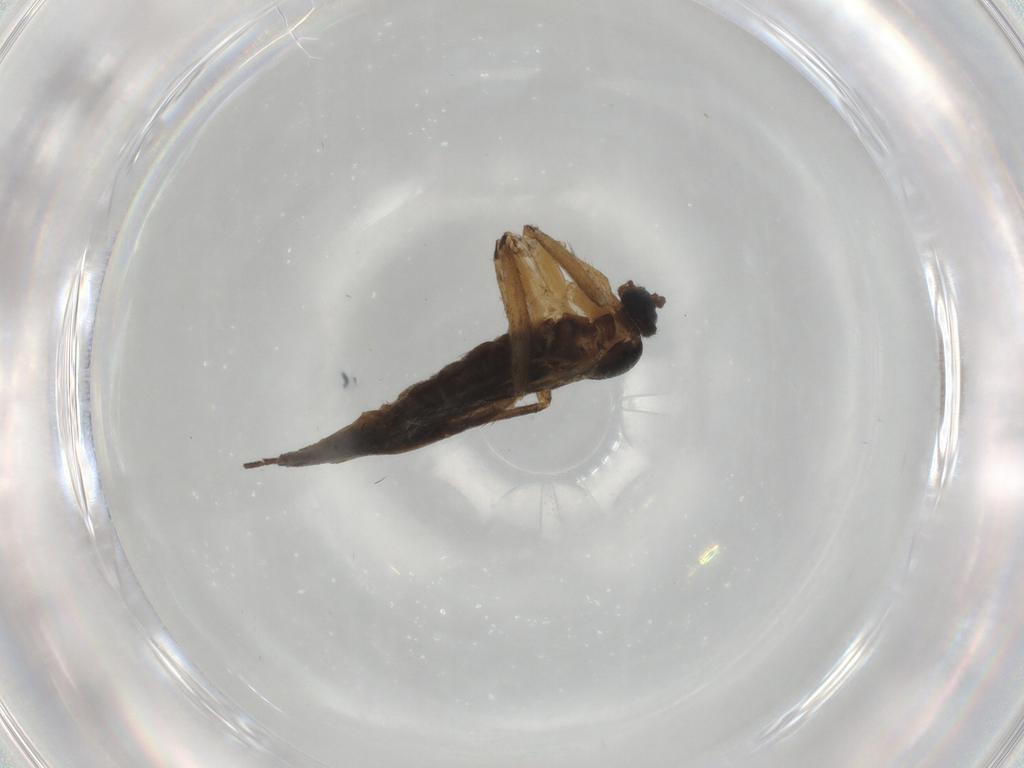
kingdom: Animalia
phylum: Arthropoda
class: Insecta
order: Diptera
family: Sciaridae
